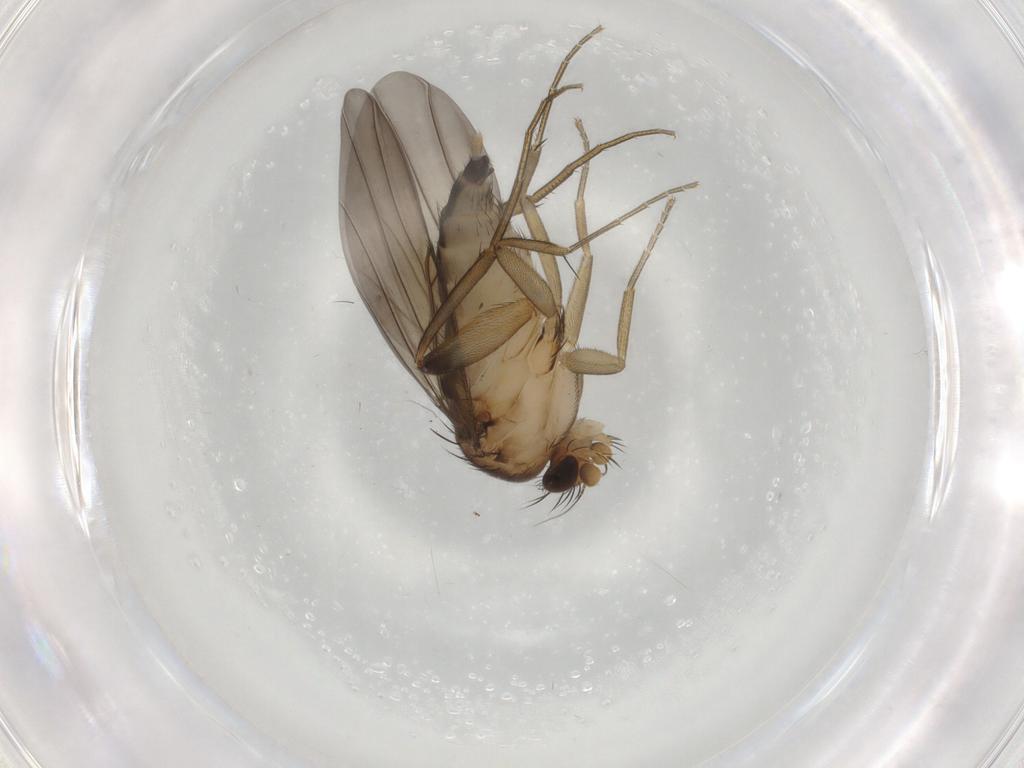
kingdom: Animalia
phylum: Arthropoda
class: Insecta
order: Diptera
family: Phoridae
